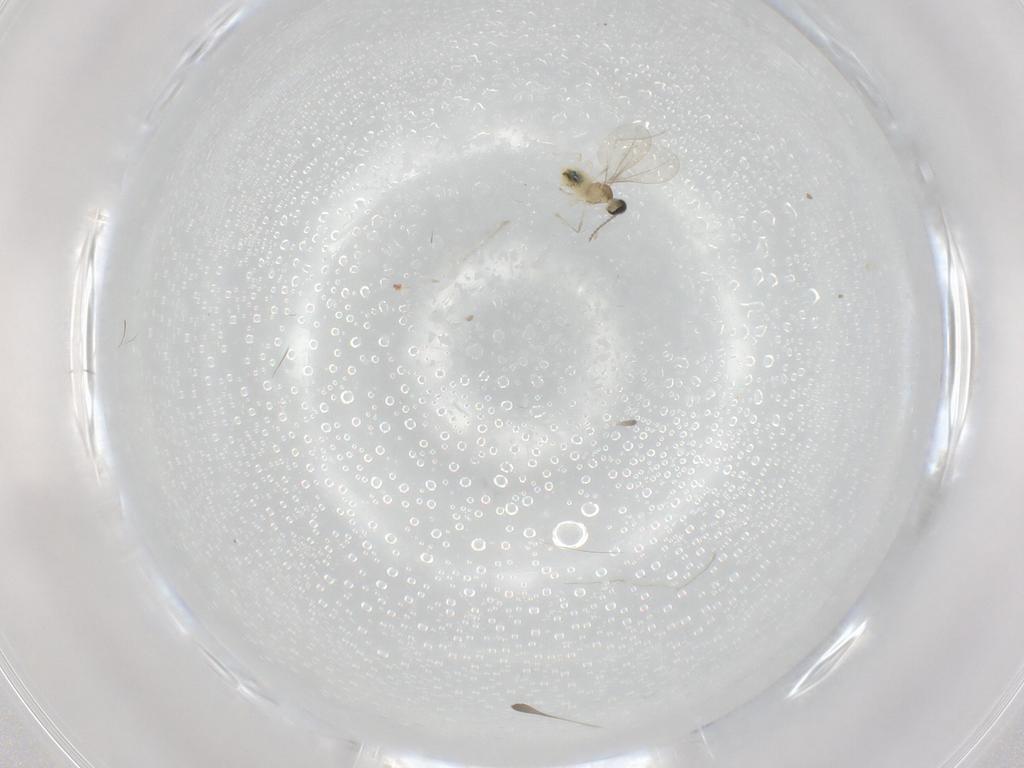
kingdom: Animalia
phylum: Arthropoda
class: Insecta
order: Diptera
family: Cecidomyiidae
